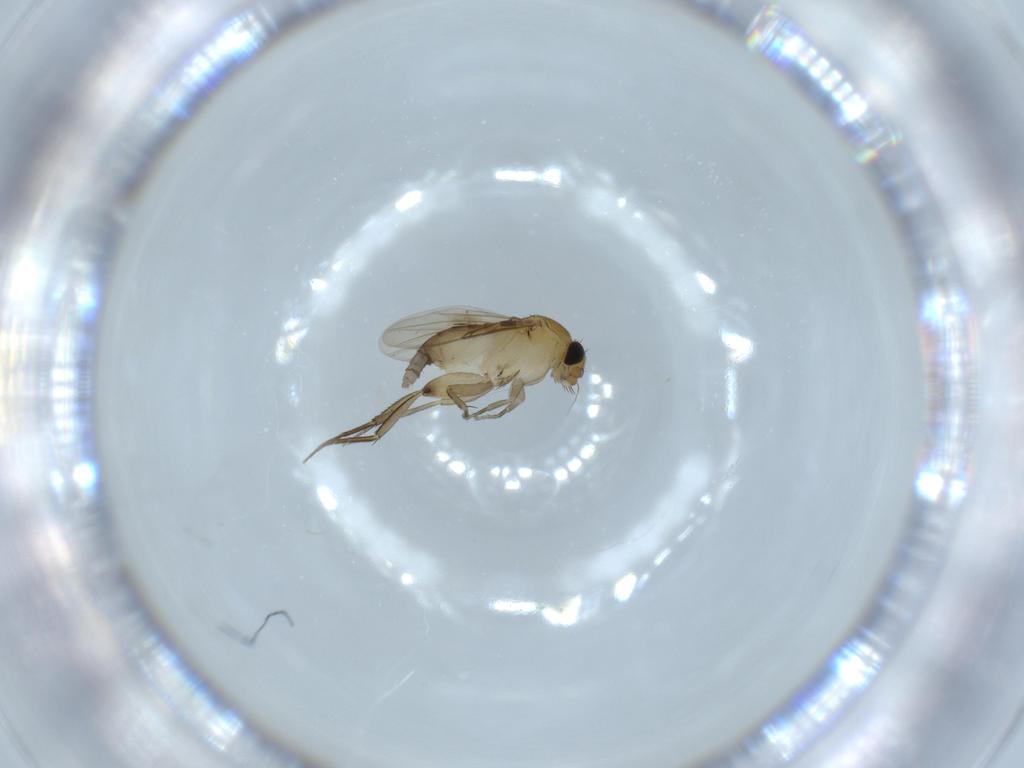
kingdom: Animalia
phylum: Arthropoda
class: Insecta
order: Diptera
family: Phoridae
